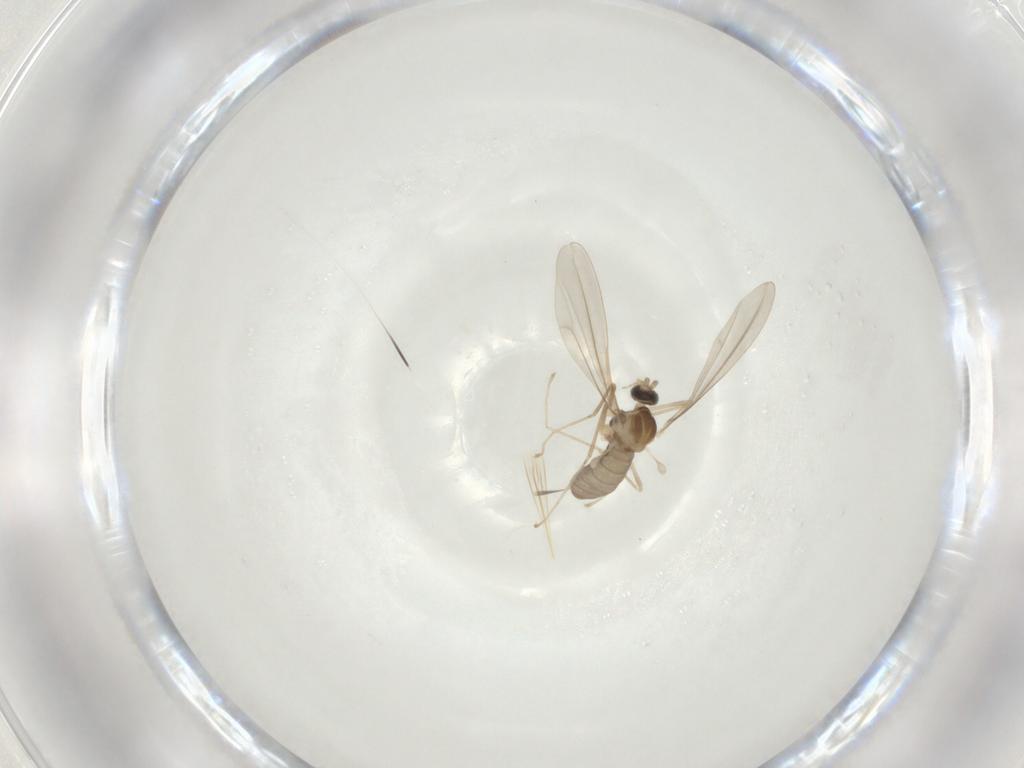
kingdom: Animalia
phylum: Arthropoda
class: Insecta
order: Diptera
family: Cecidomyiidae
